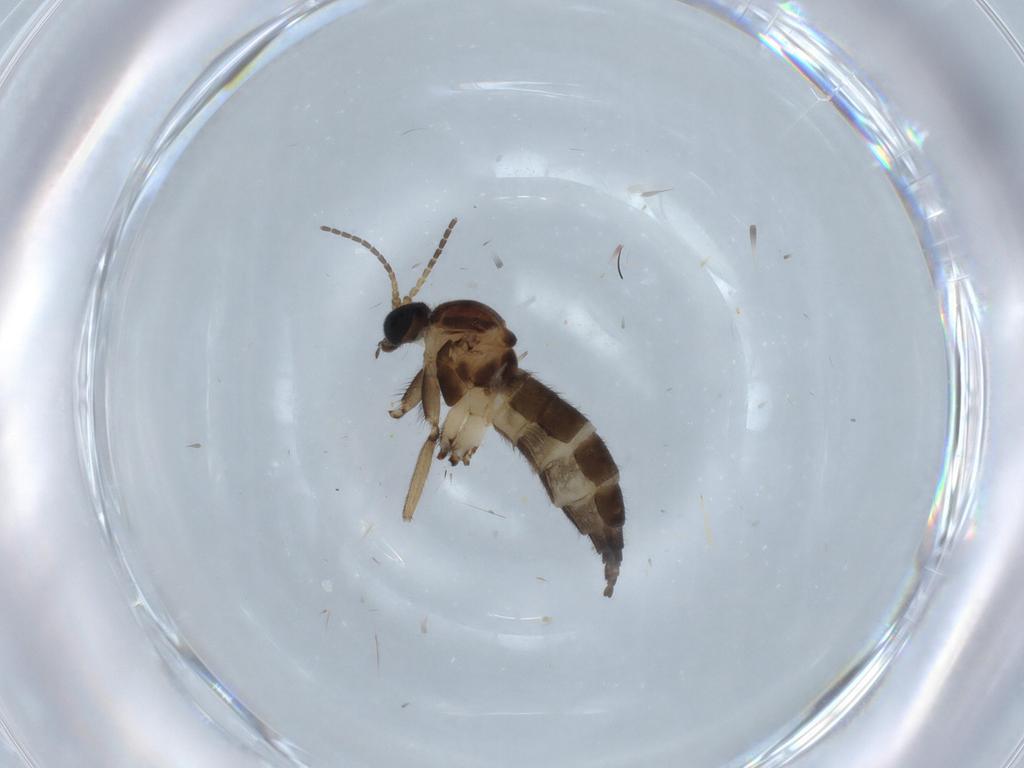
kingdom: Animalia
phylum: Arthropoda
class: Insecta
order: Diptera
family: Sciaridae
